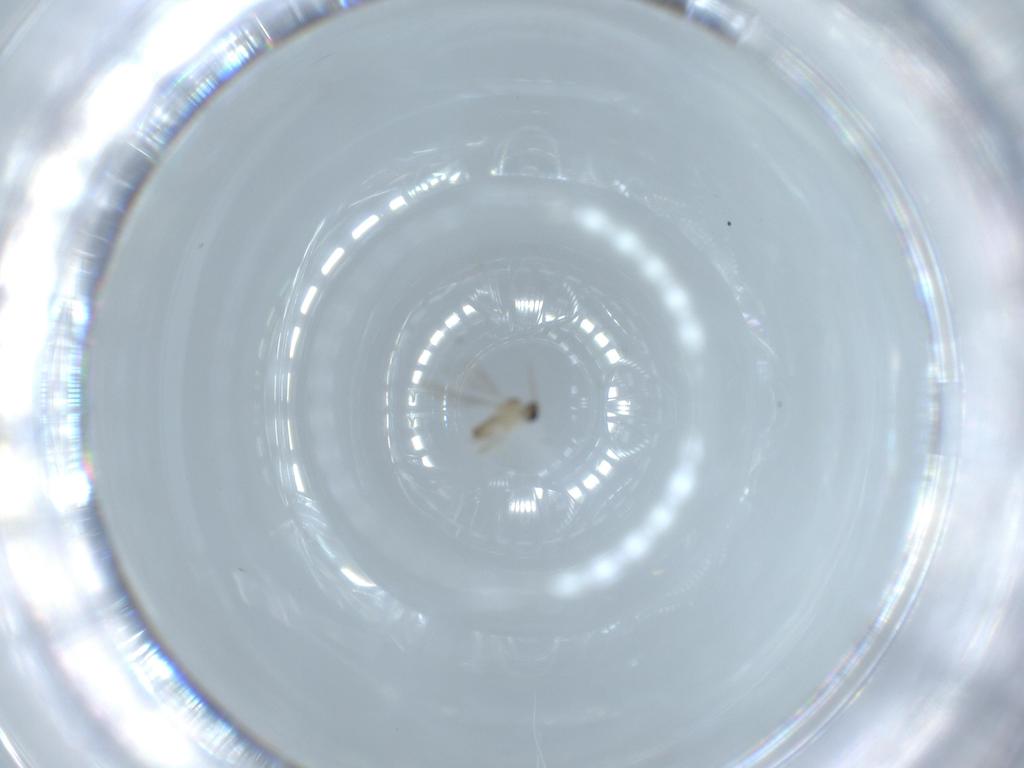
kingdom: Animalia
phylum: Arthropoda
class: Insecta
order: Diptera
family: Cecidomyiidae
